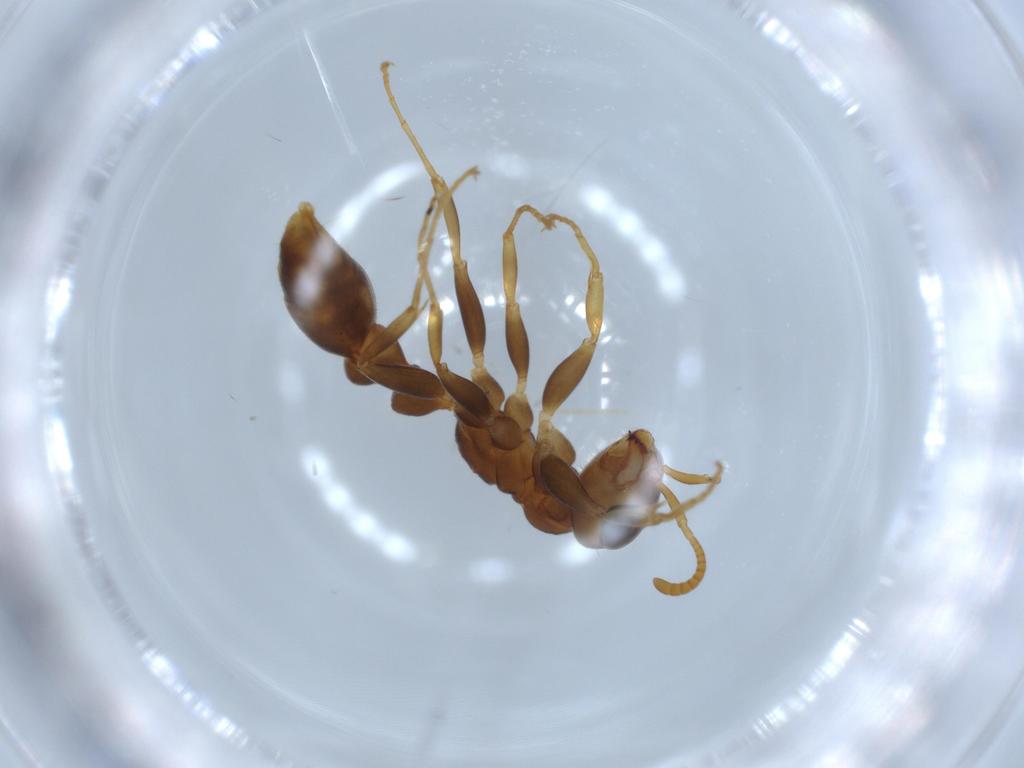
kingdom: Animalia
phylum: Arthropoda
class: Insecta
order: Hymenoptera
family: Formicidae
